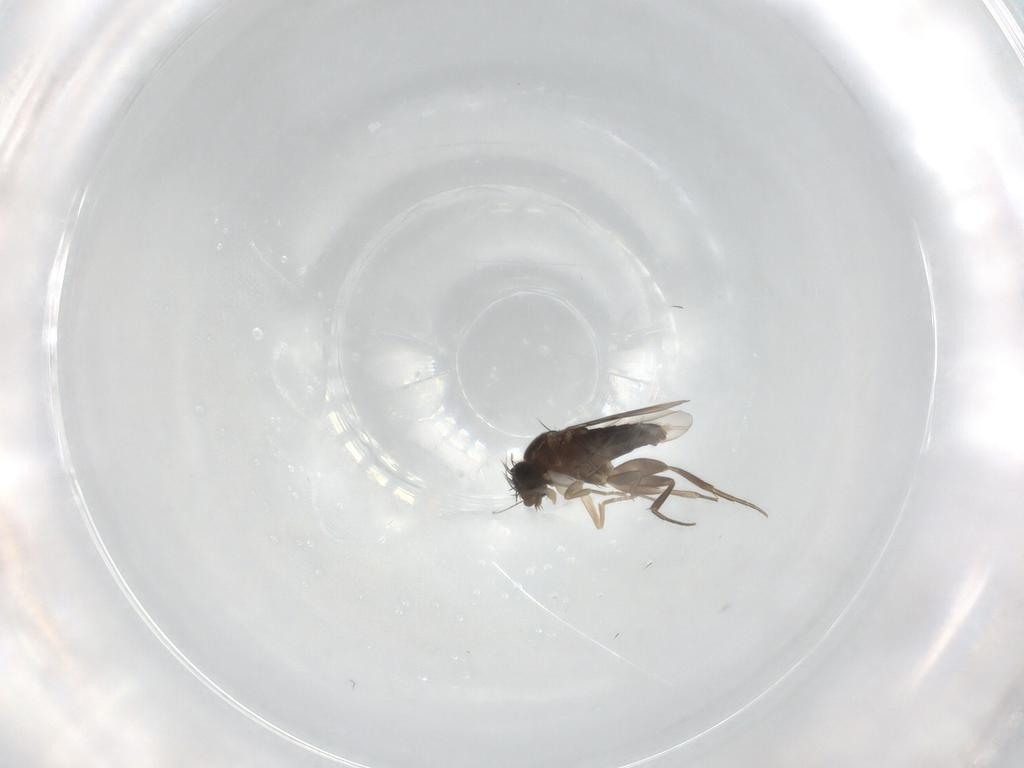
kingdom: Animalia
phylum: Arthropoda
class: Insecta
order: Diptera
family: Phoridae
